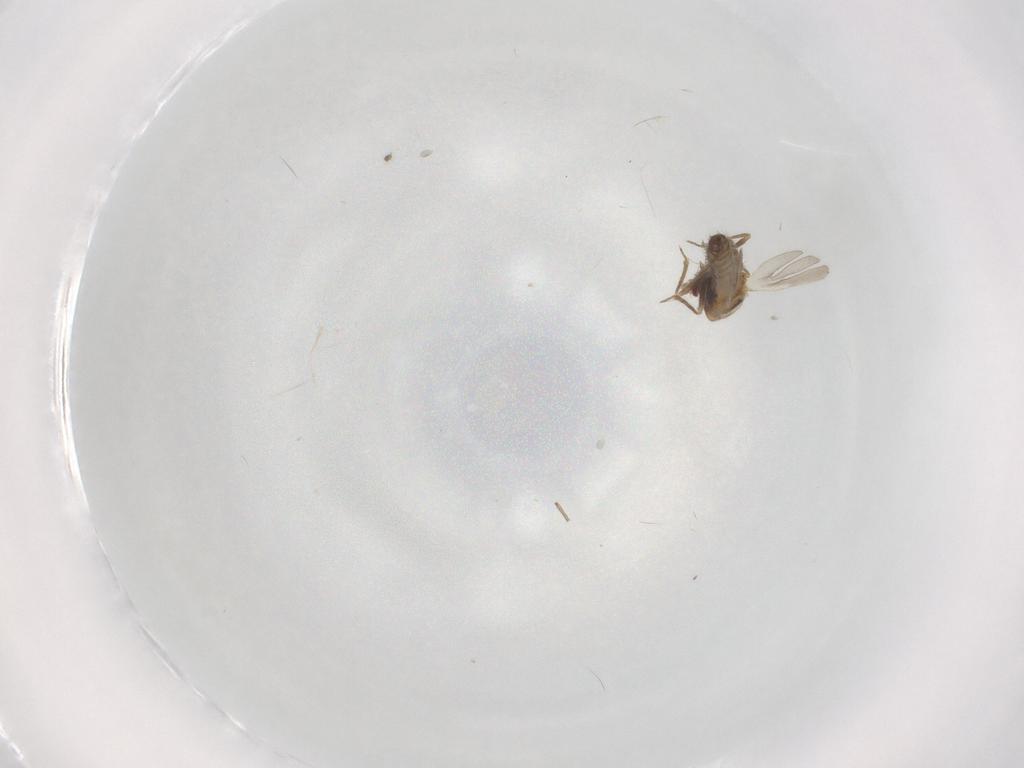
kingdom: Animalia
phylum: Arthropoda
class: Insecta
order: Diptera
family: Cecidomyiidae
